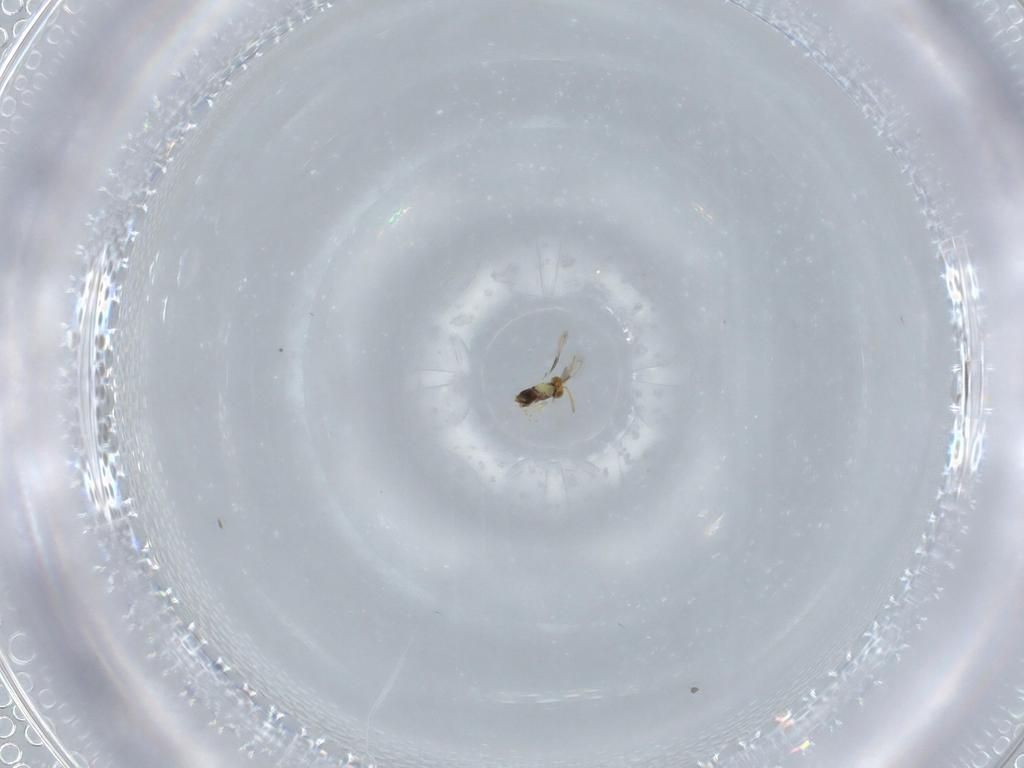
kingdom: Animalia
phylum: Arthropoda
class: Insecta
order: Hymenoptera
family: Aphelinidae
